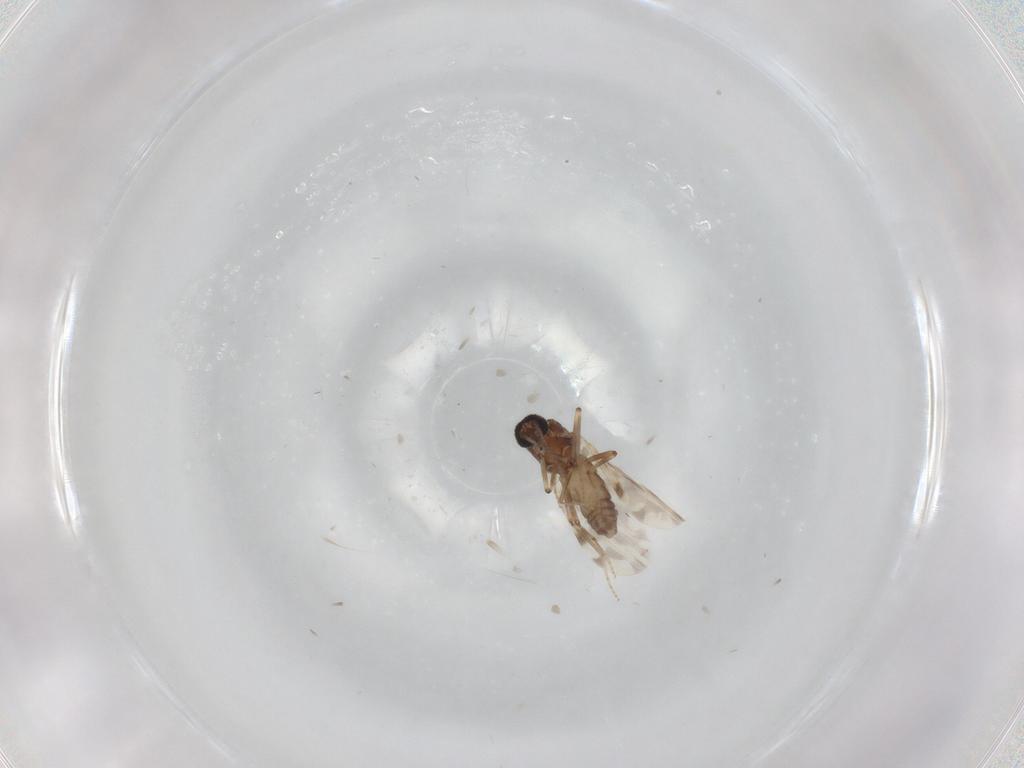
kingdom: Animalia
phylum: Arthropoda
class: Insecta
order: Diptera
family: Ceratopogonidae
